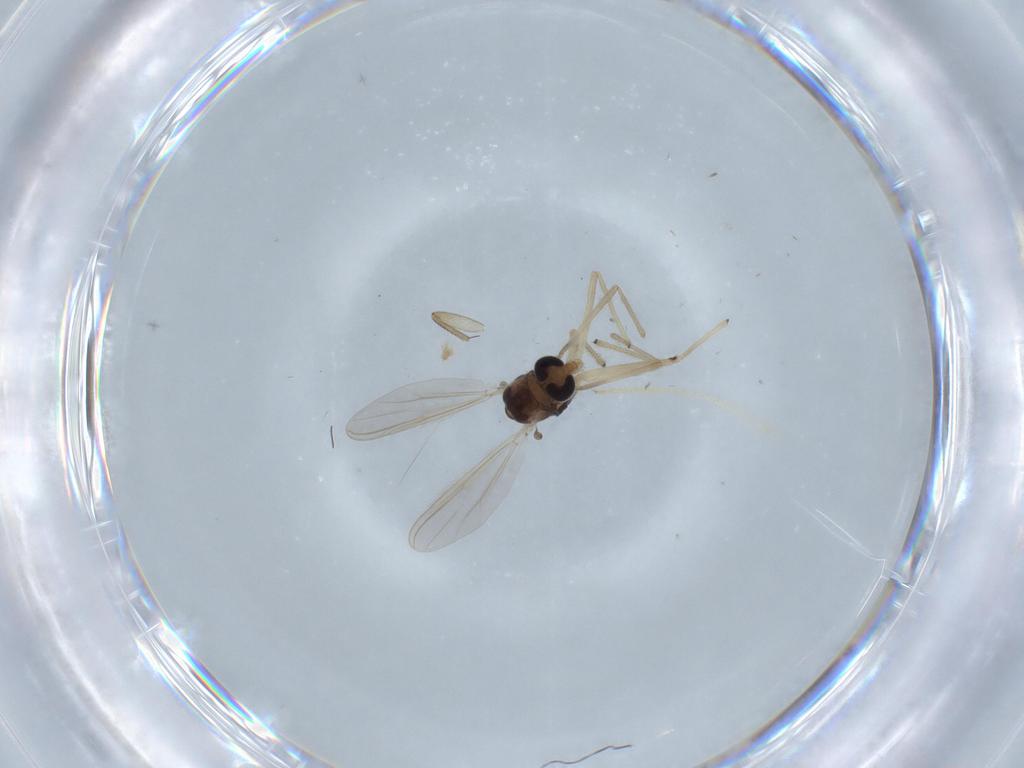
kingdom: Animalia
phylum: Arthropoda
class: Insecta
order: Diptera
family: Chironomidae
